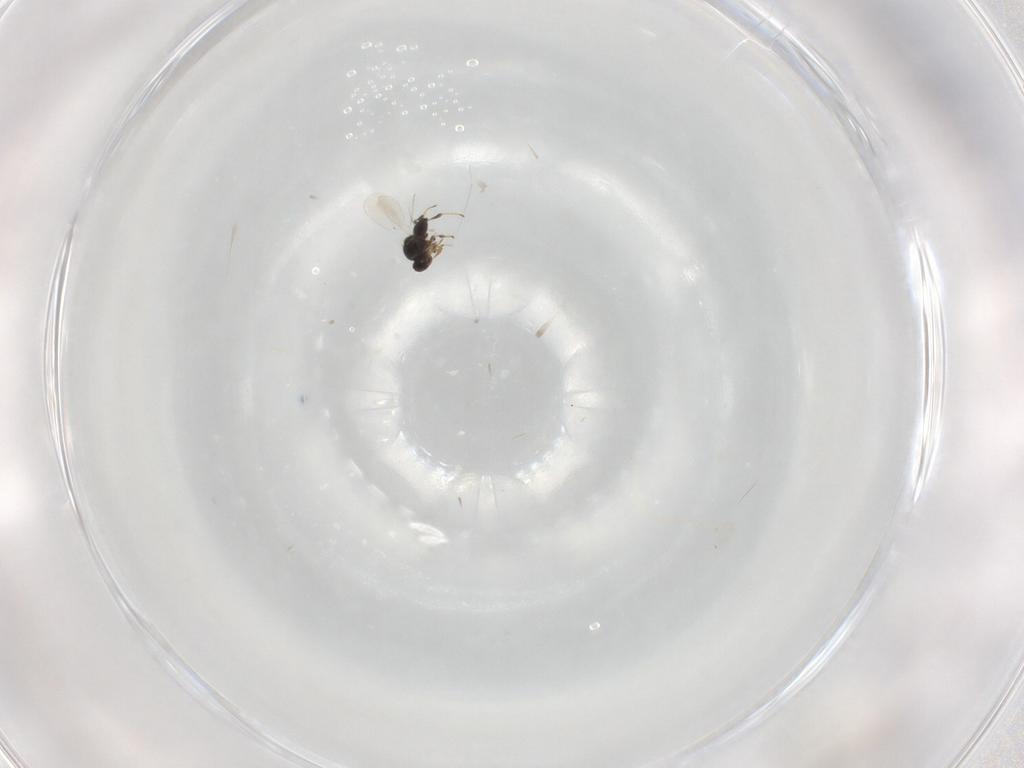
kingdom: Animalia
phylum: Arthropoda
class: Insecta
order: Hymenoptera
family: Platygastridae
